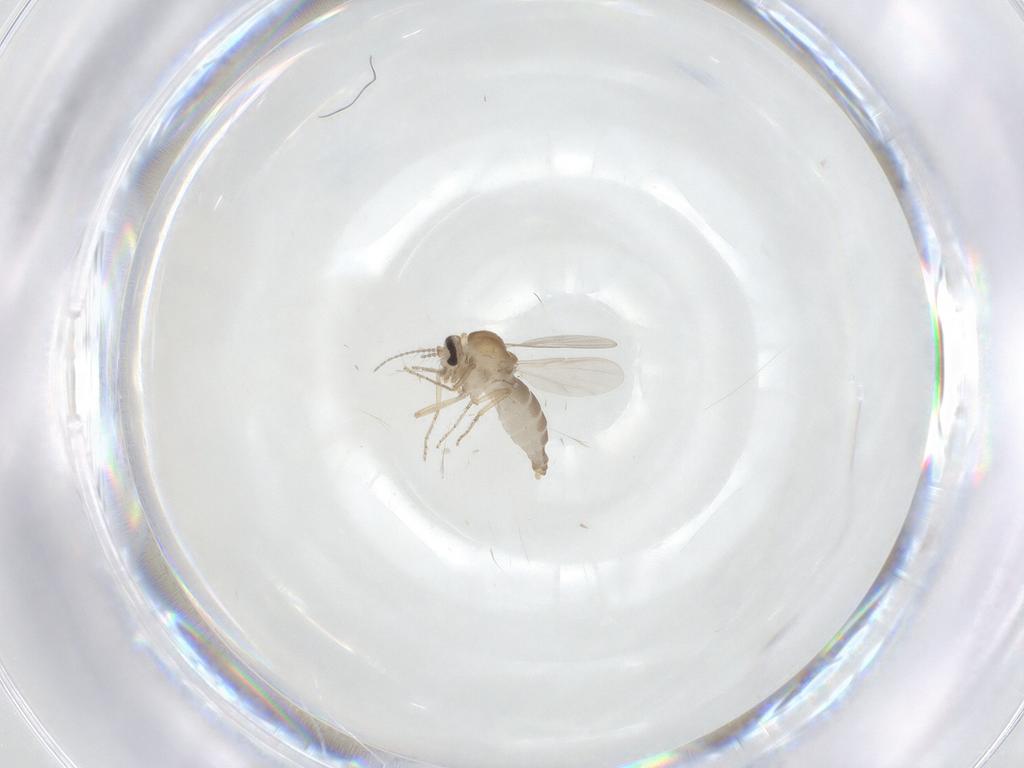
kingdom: Animalia
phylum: Arthropoda
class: Insecta
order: Diptera
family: Ceratopogonidae
